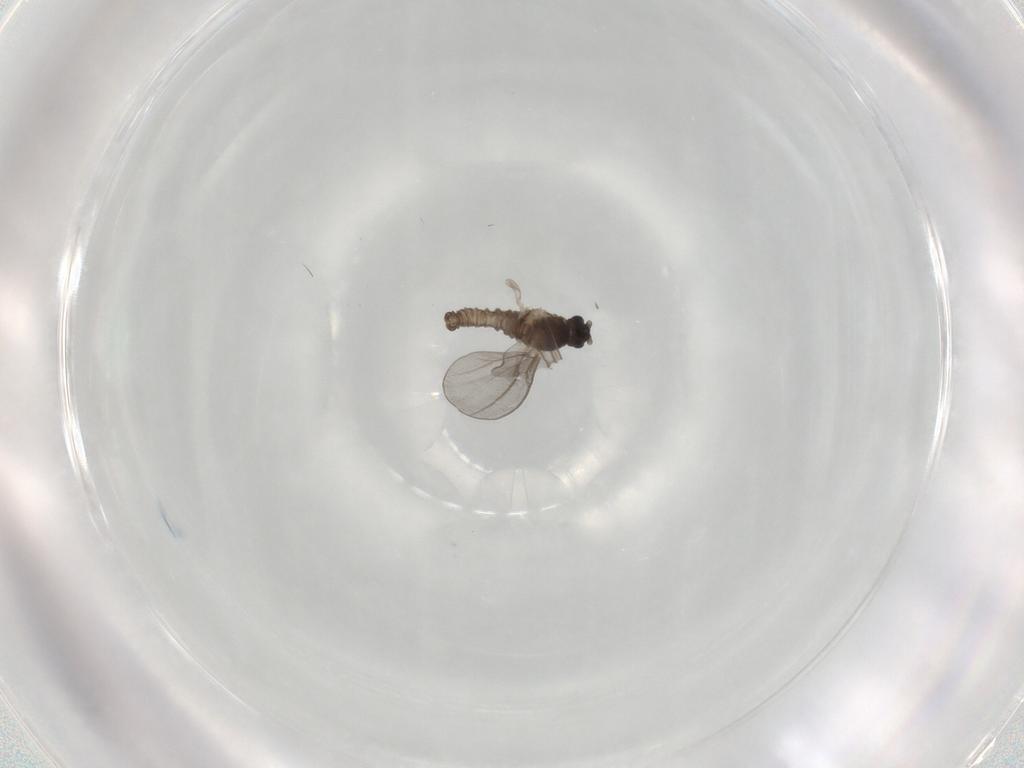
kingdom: Animalia
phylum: Arthropoda
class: Insecta
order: Diptera
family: Cecidomyiidae
